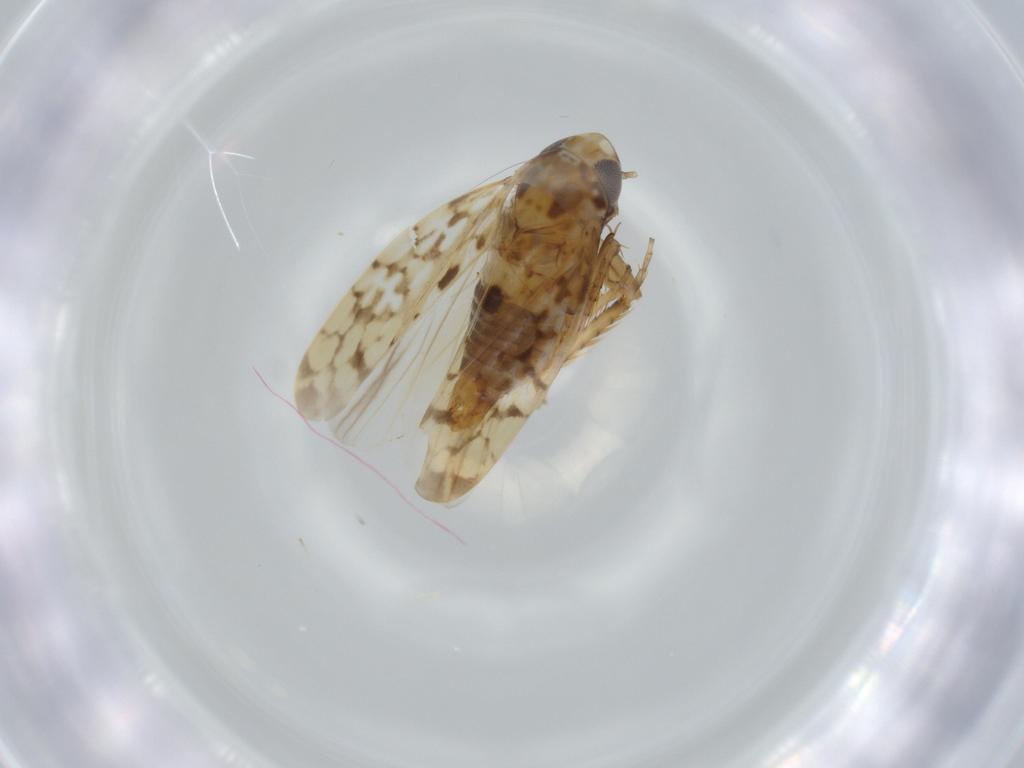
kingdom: Animalia
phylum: Arthropoda
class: Insecta
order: Hemiptera
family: Cicadellidae
